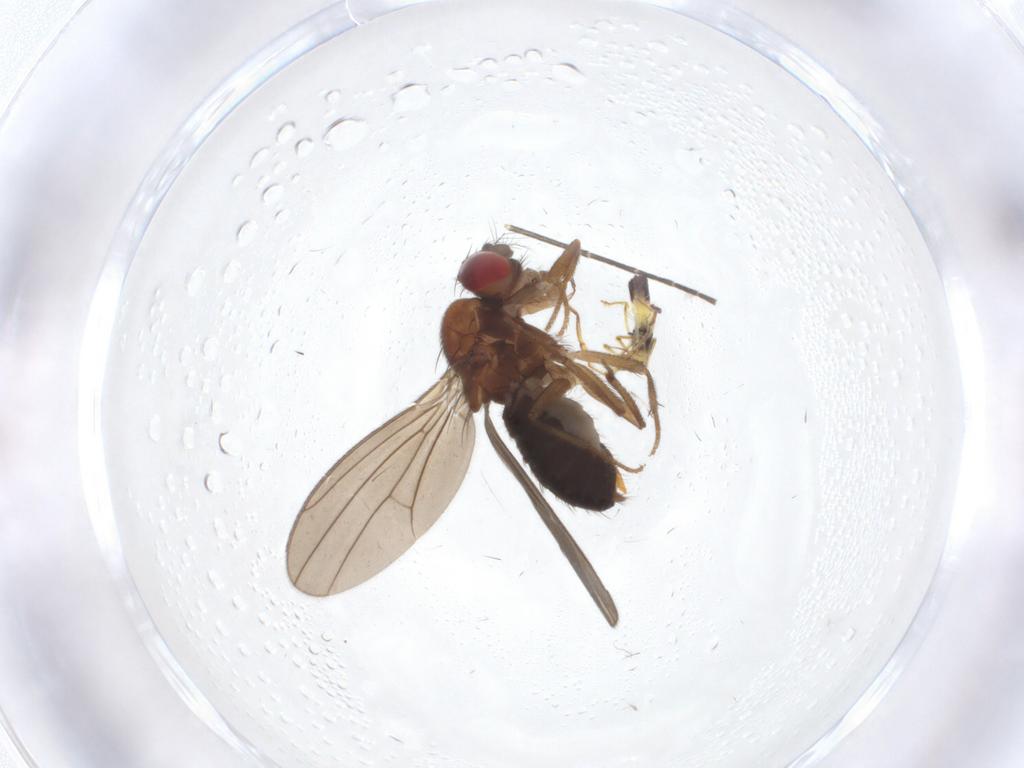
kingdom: Animalia
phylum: Arthropoda
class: Insecta
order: Diptera
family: Drosophilidae
